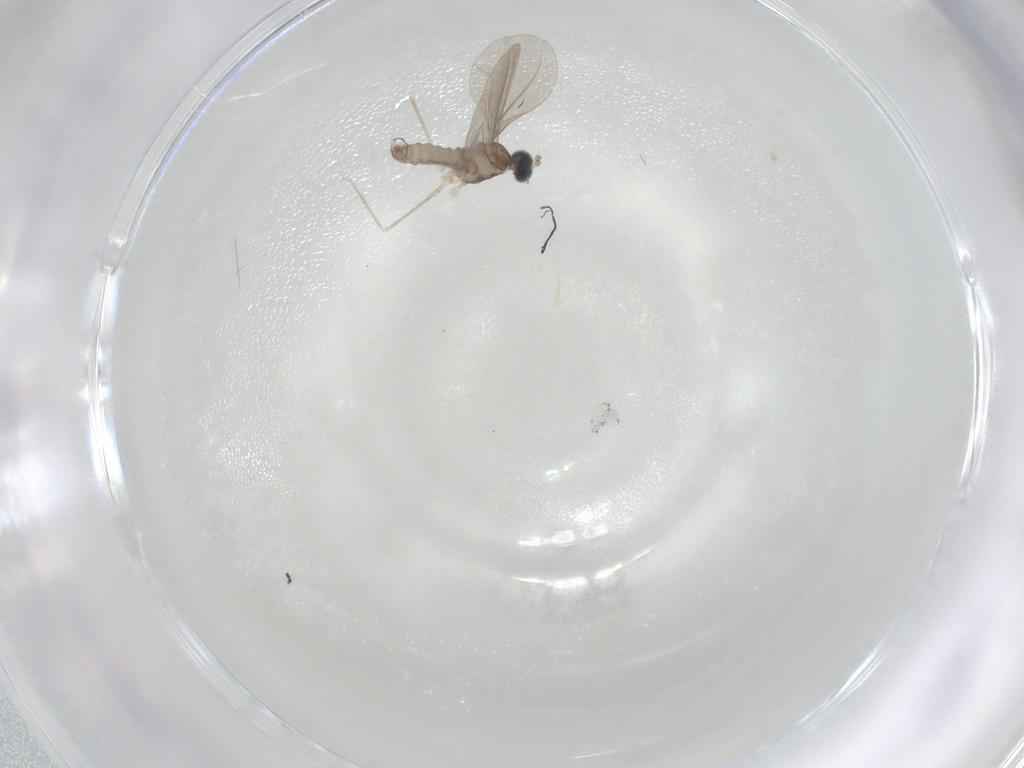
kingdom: Animalia
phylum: Arthropoda
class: Insecta
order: Diptera
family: Cecidomyiidae
